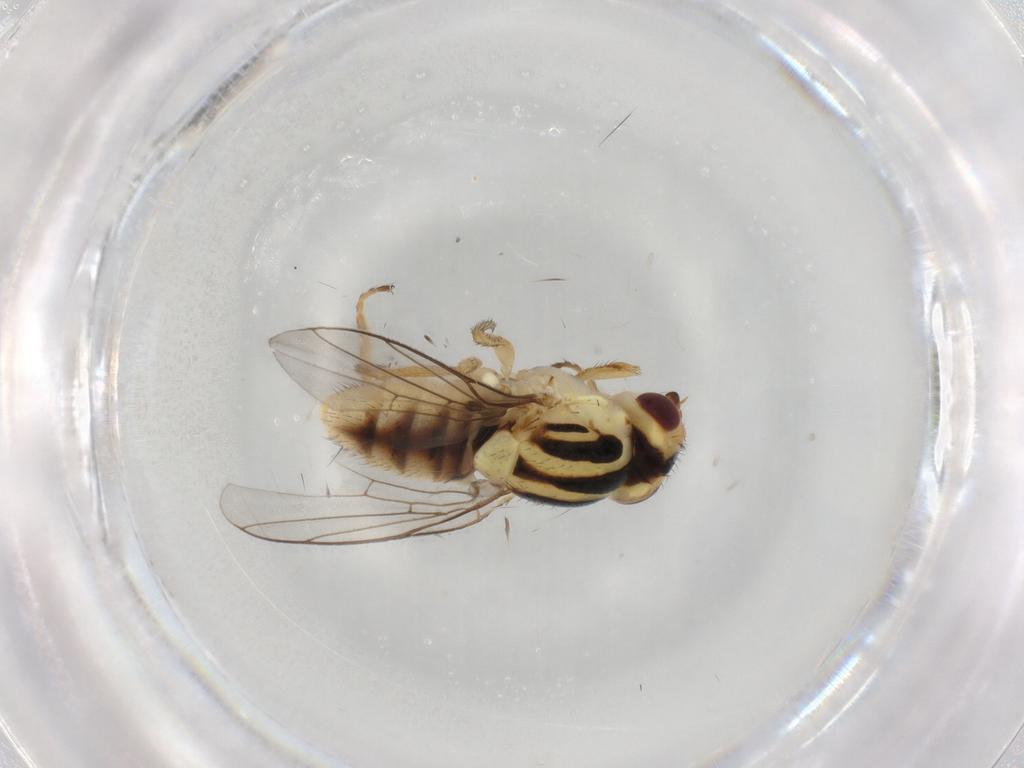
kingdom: Animalia
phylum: Arthropoda
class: Insecta
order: Diptera
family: Chloropidae
